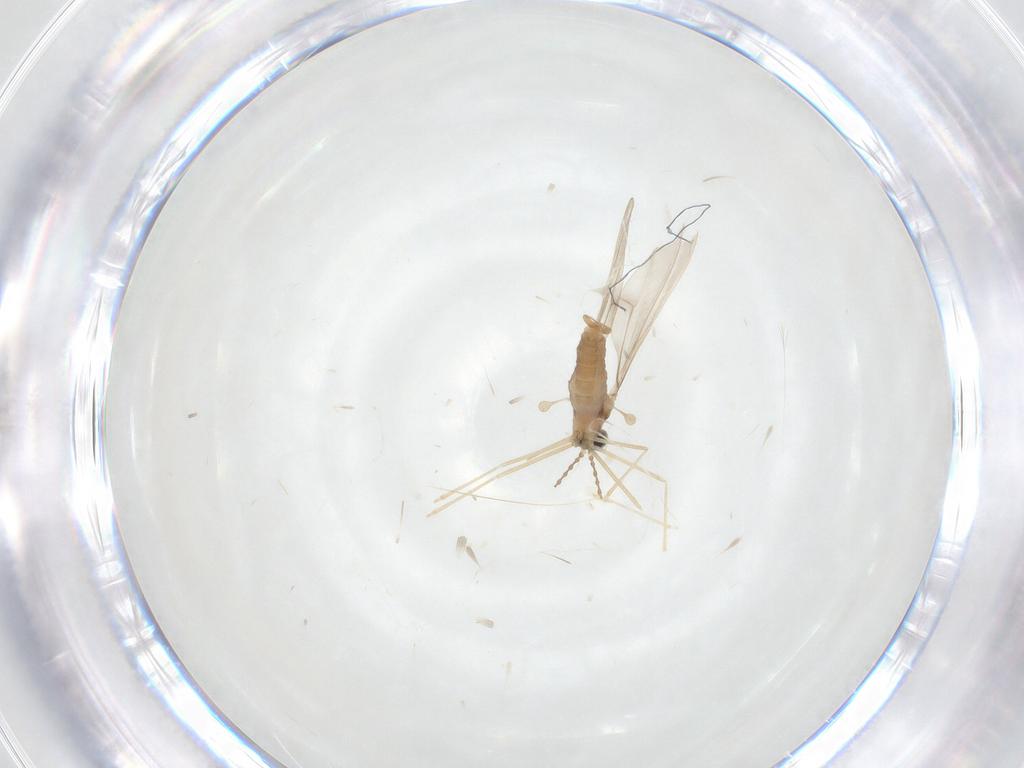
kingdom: Animalia
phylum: Arthropoda
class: Insecta
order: Diptera
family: Cecidomyiidae
